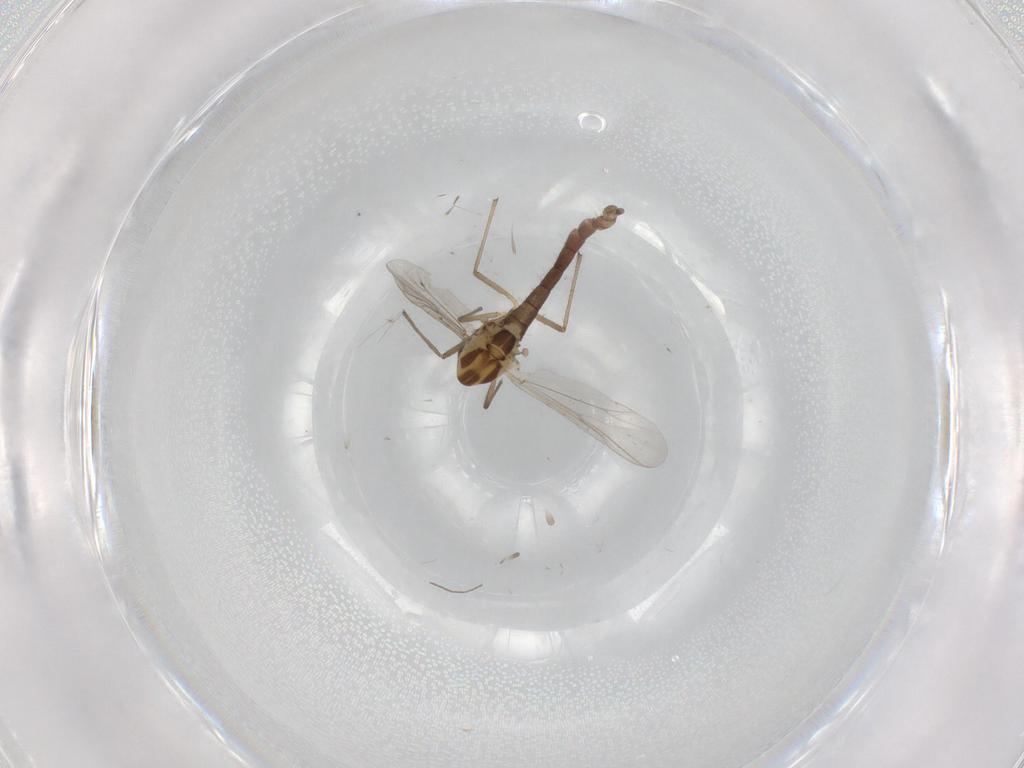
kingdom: Animalia
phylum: Arthropoda
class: Insecta
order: Diptera
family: Chironomidae
